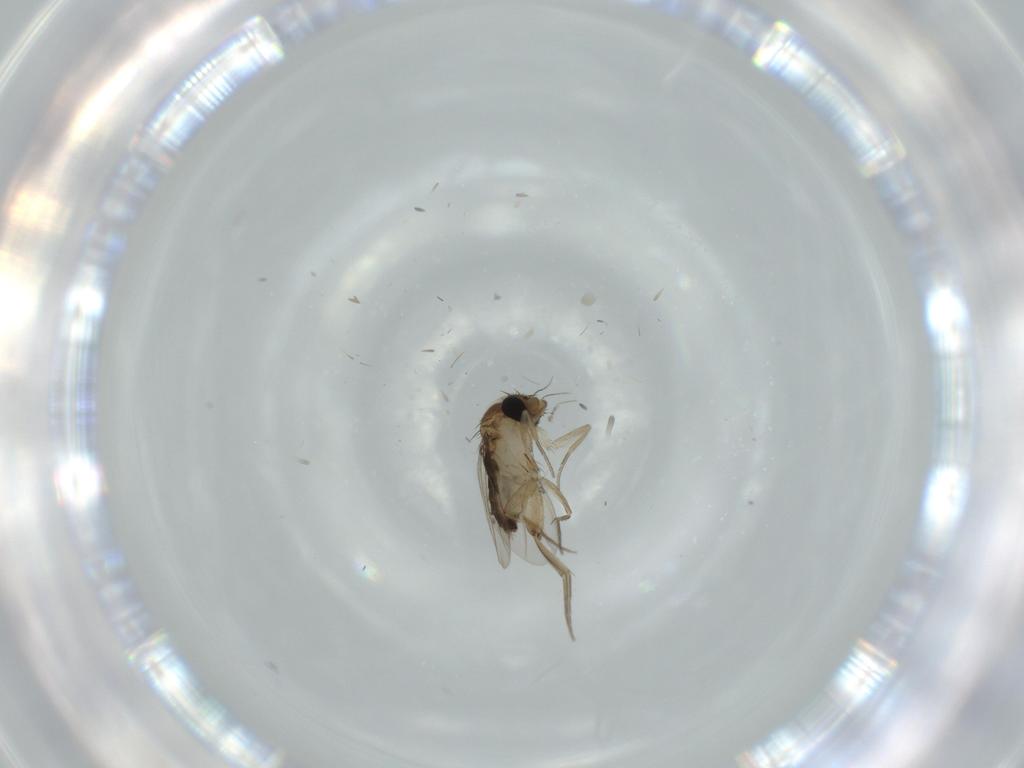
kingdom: Animalia
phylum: Arthropoda
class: Insecta
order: Diptera
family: Phoridae
